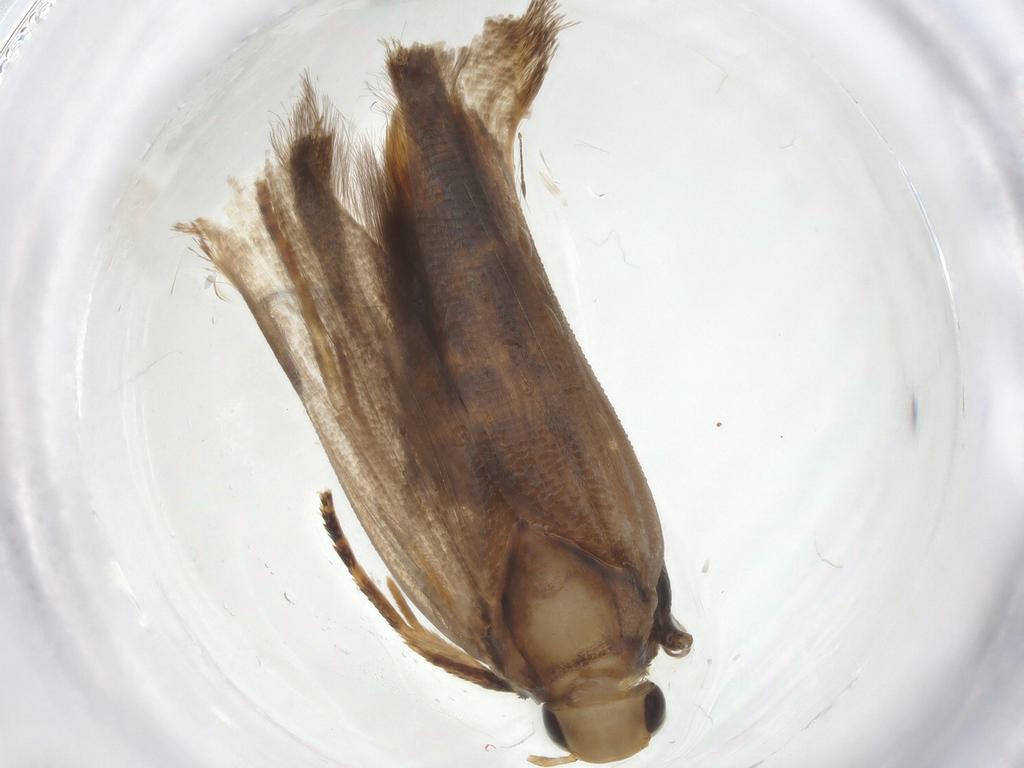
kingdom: Animalia
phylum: Arthropoda
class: Insecta
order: Lepidoptera
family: Gelechiidae
